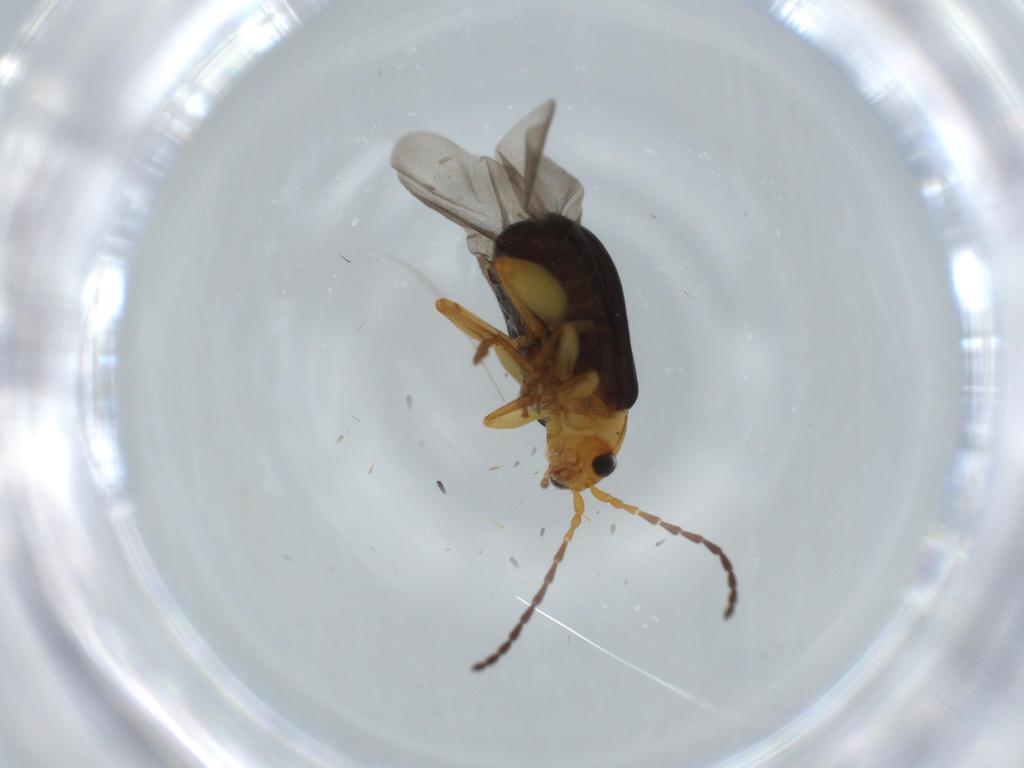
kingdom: Animalia
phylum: Arthropoda
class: Insecta
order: Coleoptera
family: Chrysomelidae
